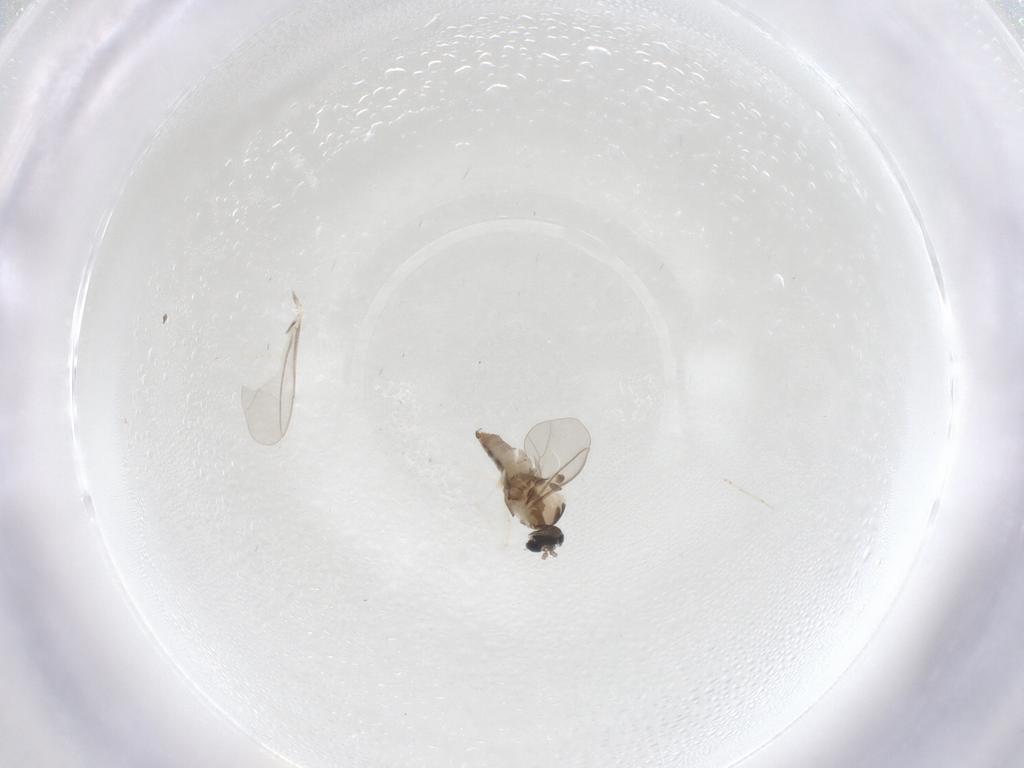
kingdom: Animalia
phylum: Arthropoda
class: Insecta
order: Diptera
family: Cecidomyiidae
